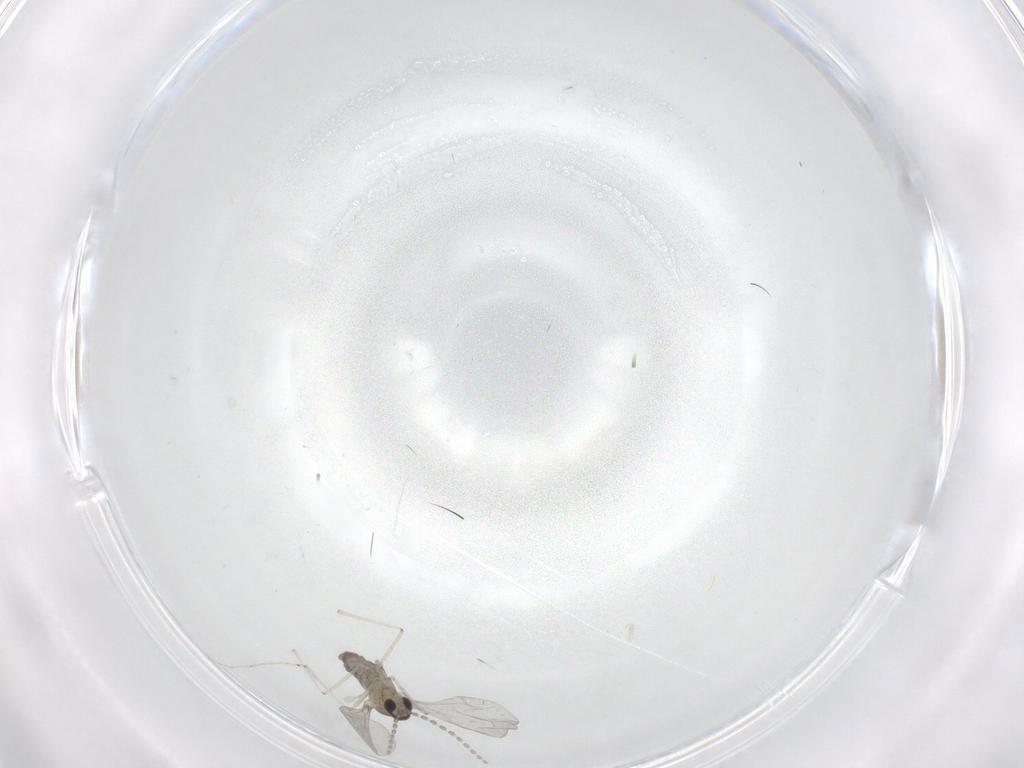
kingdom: Animalia
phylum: Arthropoda
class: Insecta
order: Diptera
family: Cecidomyiidae
